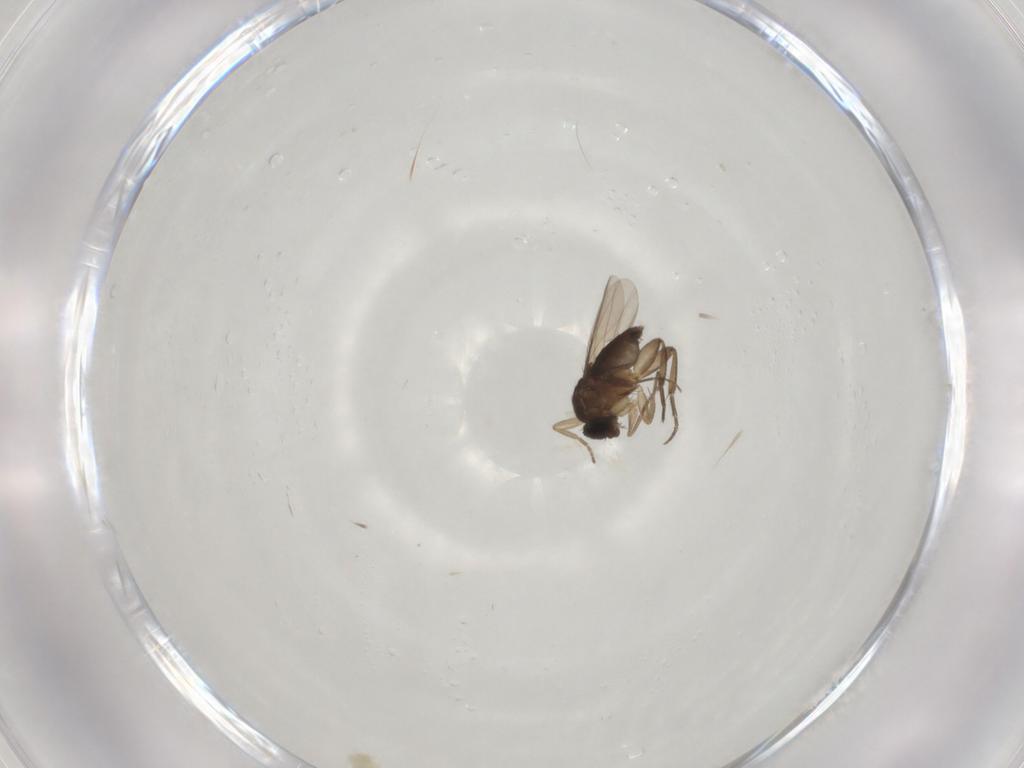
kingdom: Animalia
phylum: Arthropoda
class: Insecta
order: Diptera
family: Phoridae
